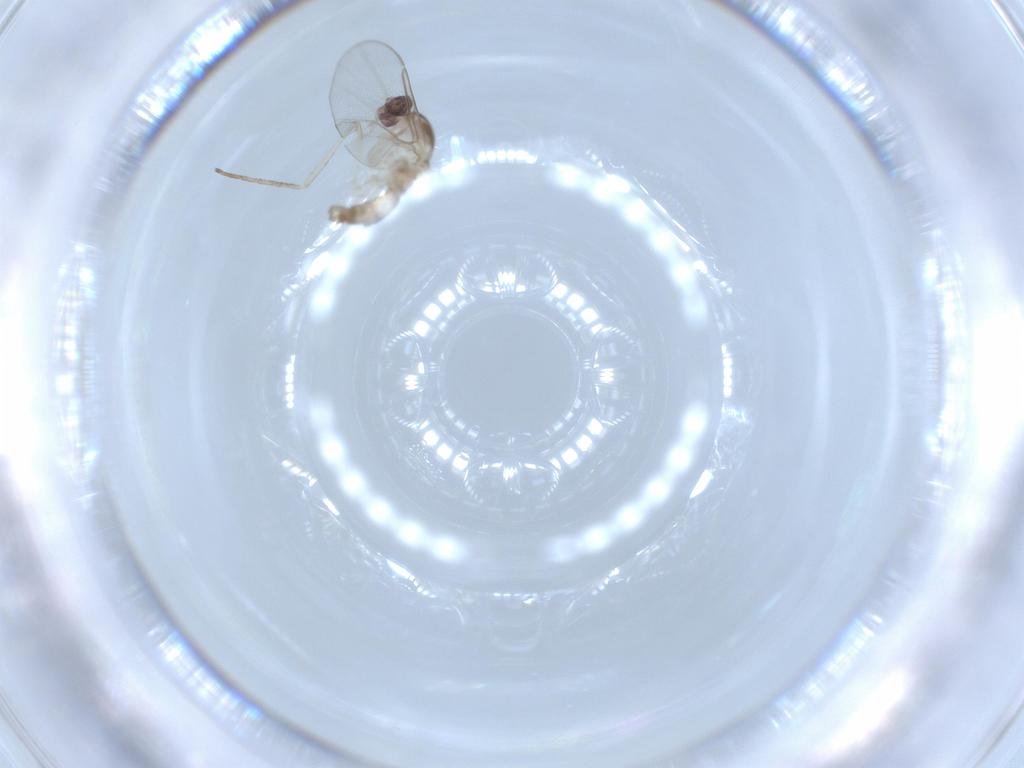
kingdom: Animalia
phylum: Arthropoda
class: Insecta
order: Diptera
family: Cecidomyiidae
